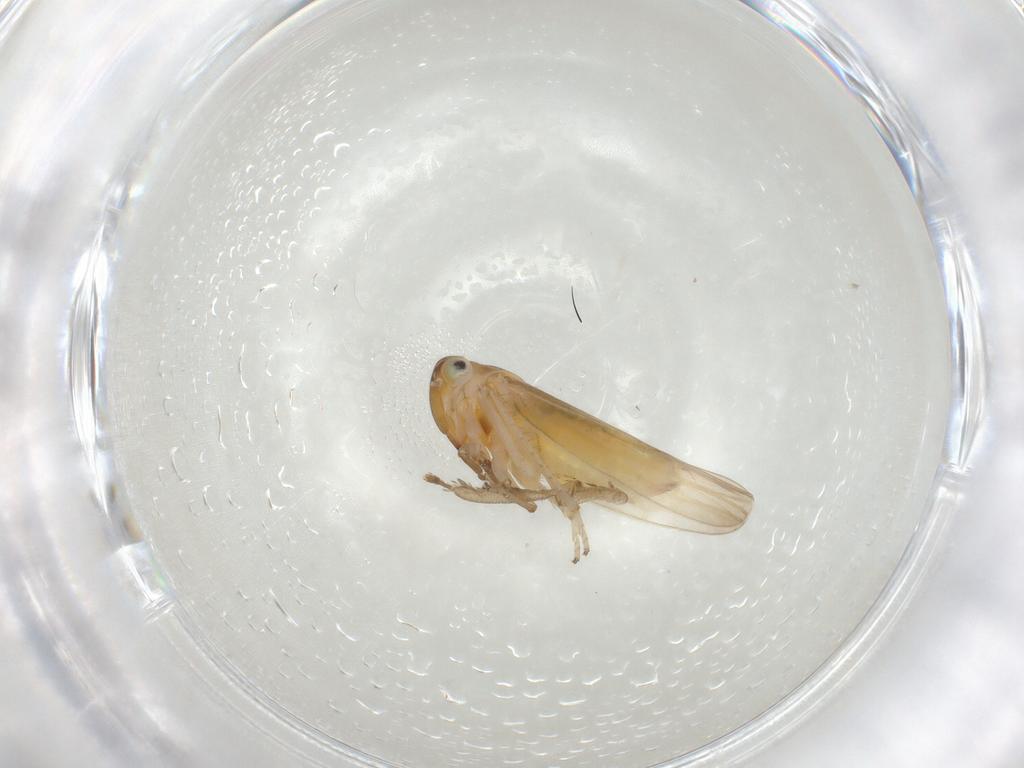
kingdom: Animalia
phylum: Arthropoda
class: Insecta
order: Hemiptera
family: Cicadellidae
